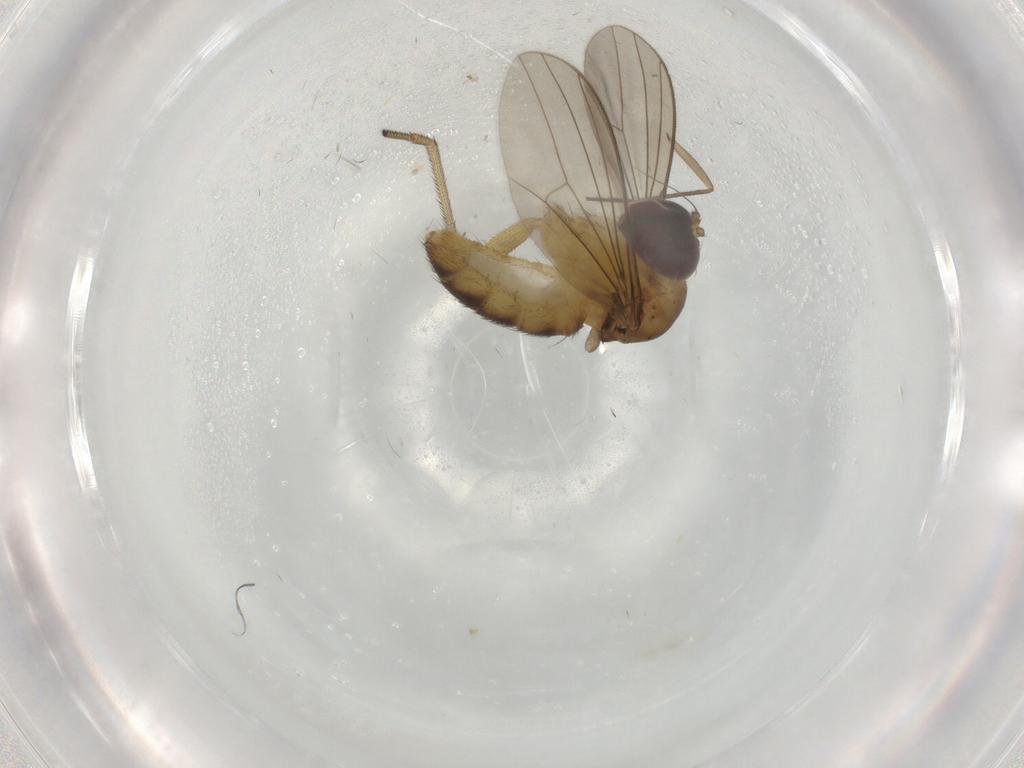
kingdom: Animalia
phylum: Arthropoda
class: Insecta
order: Diptera
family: Dolichopodidae
